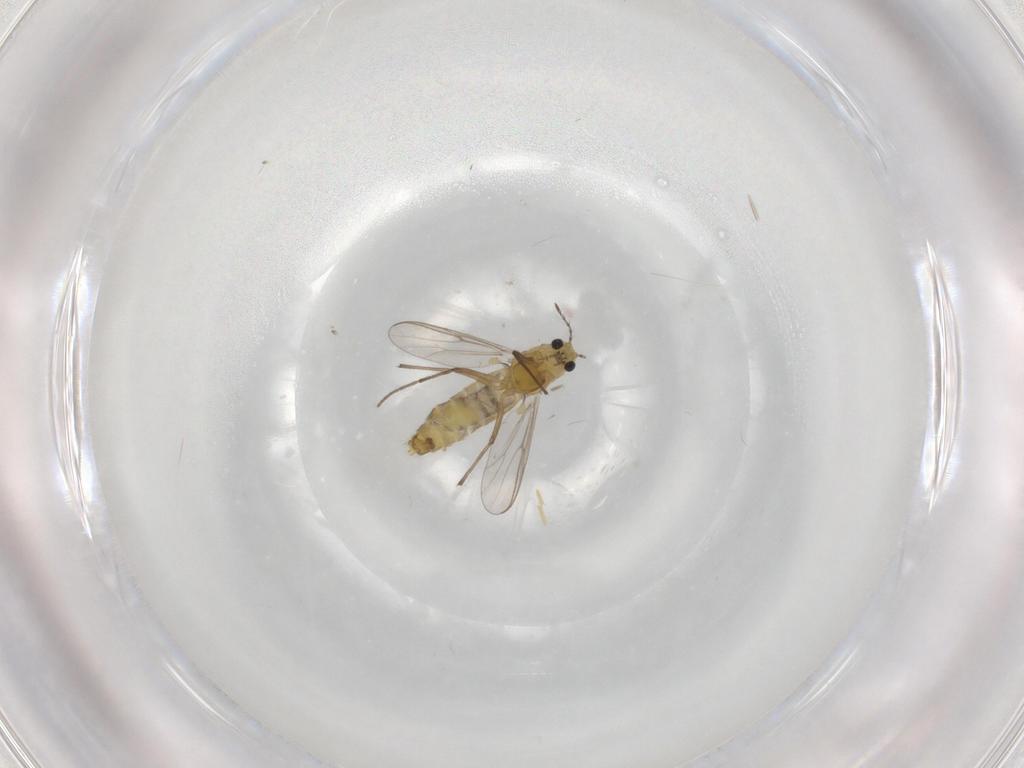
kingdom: Animalia
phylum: Arthropoda
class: Insecta
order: Diptera
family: Chironomidae
